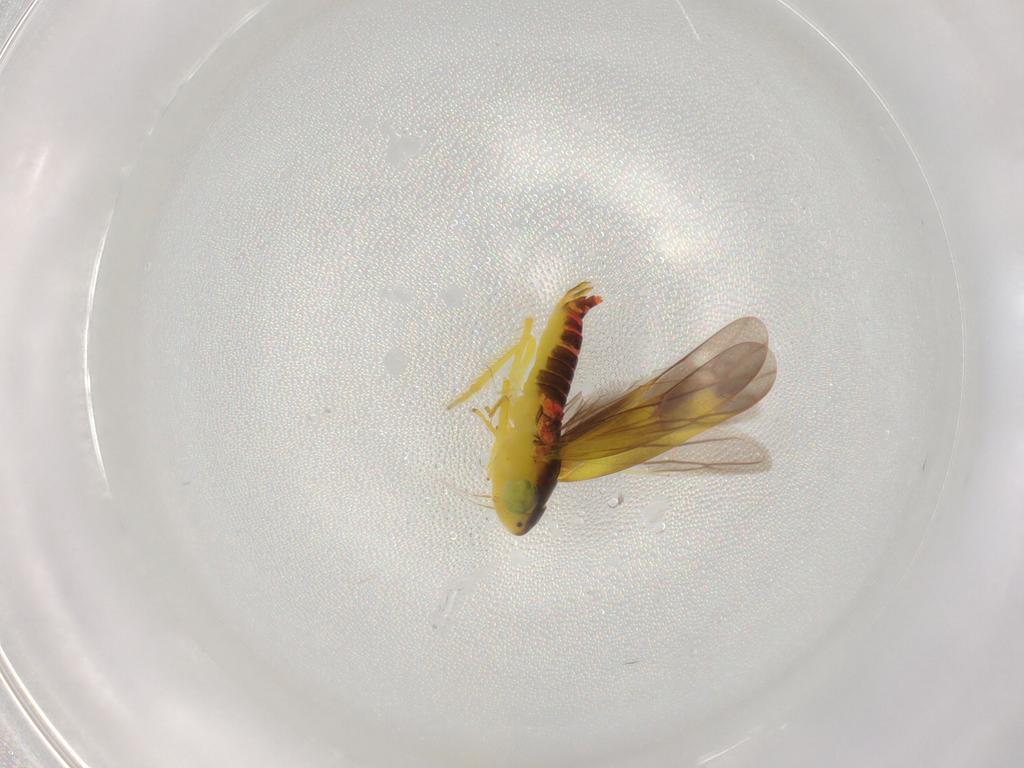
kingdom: Animalia
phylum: Arthropoda
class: Insecta
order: Hemiptera
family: Cicadellidae
